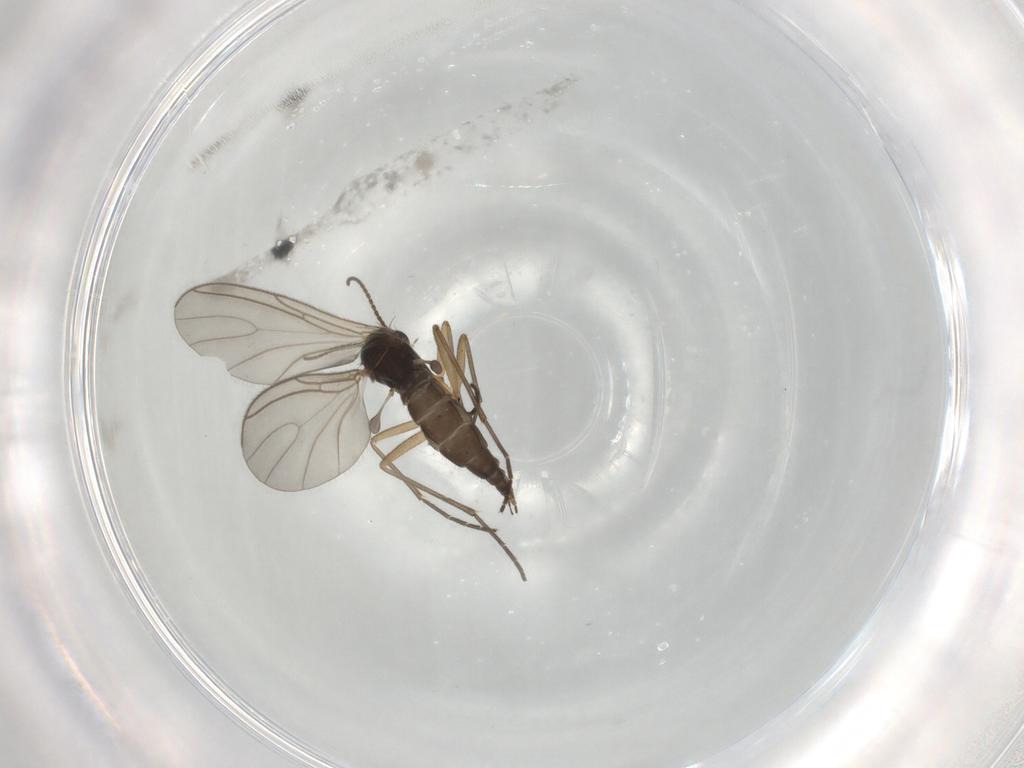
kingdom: Animalia
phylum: Arthropoda
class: Insecta
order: Diptera
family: Sciaridae
